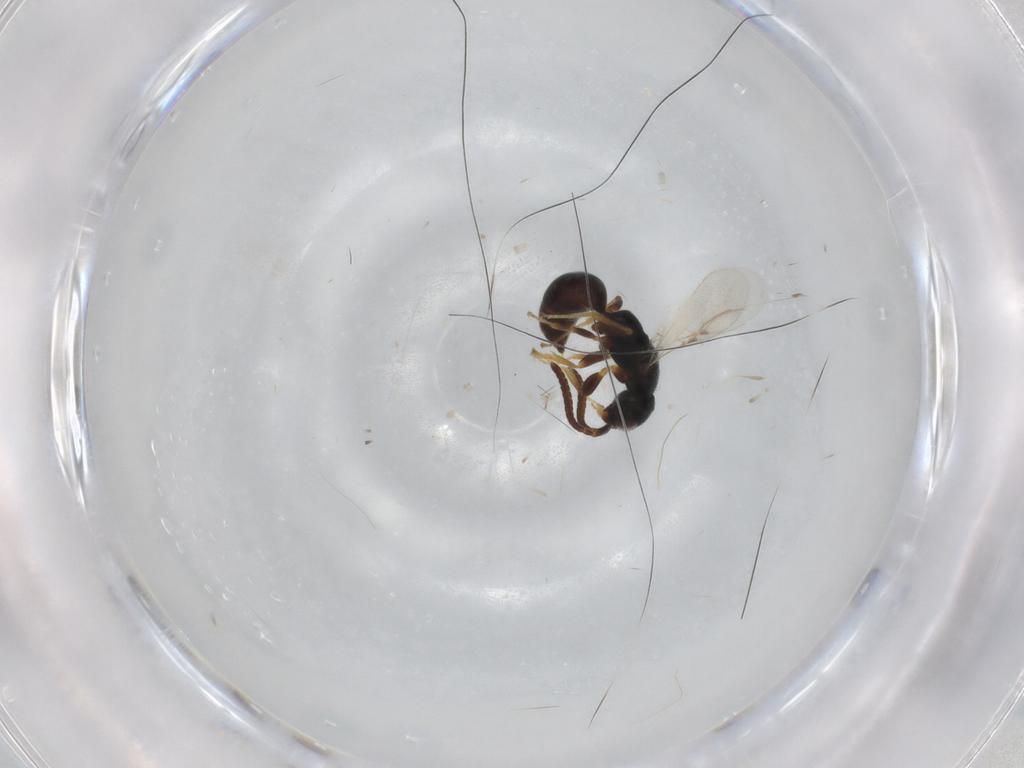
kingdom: Animalia
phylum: Arthropoda
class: Insecta
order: Hymenoptera
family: Bethylidae
